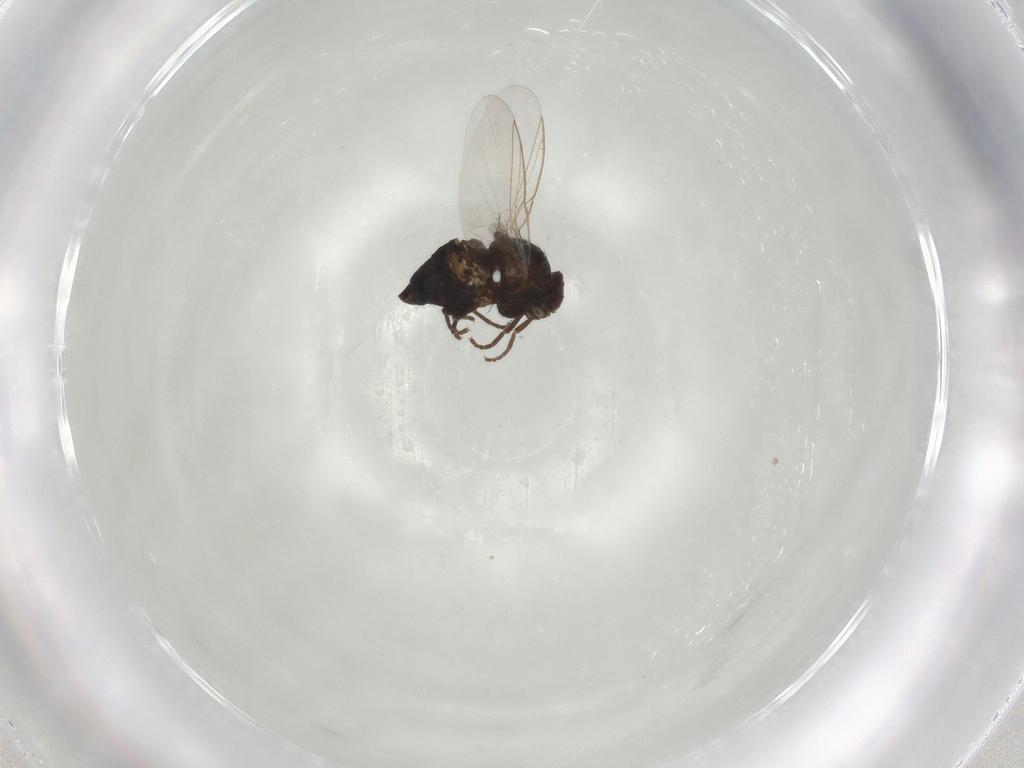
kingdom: Animalia
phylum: Arthropoda
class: Insecta
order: Diptera
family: Agromyzidae
